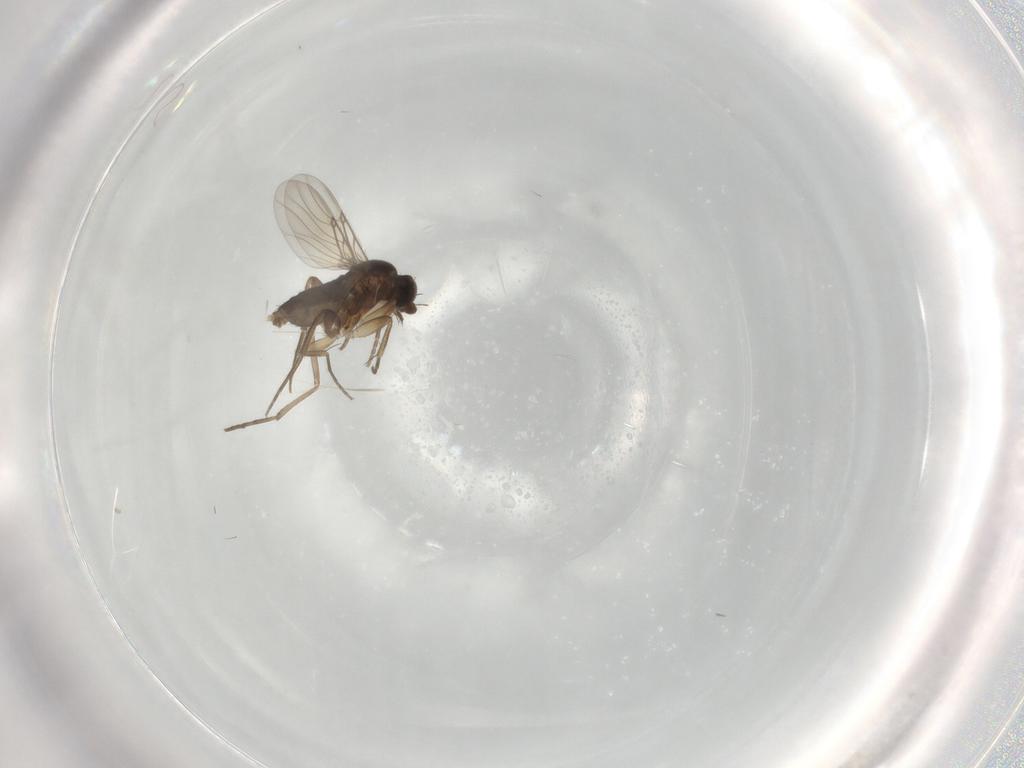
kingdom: Animalia
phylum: Arthropoda
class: Insecta
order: Diptera
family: Phoridae
